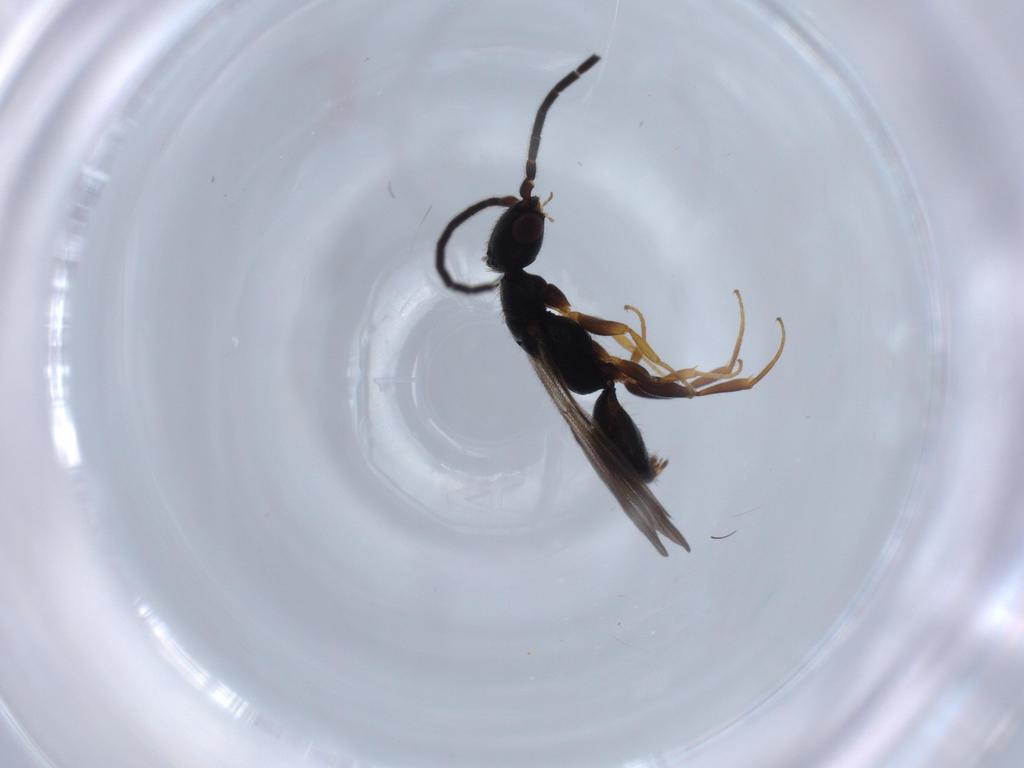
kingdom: Animalia
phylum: Arthropoda
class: Insecta
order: Hymenoptera
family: Bethylidae
